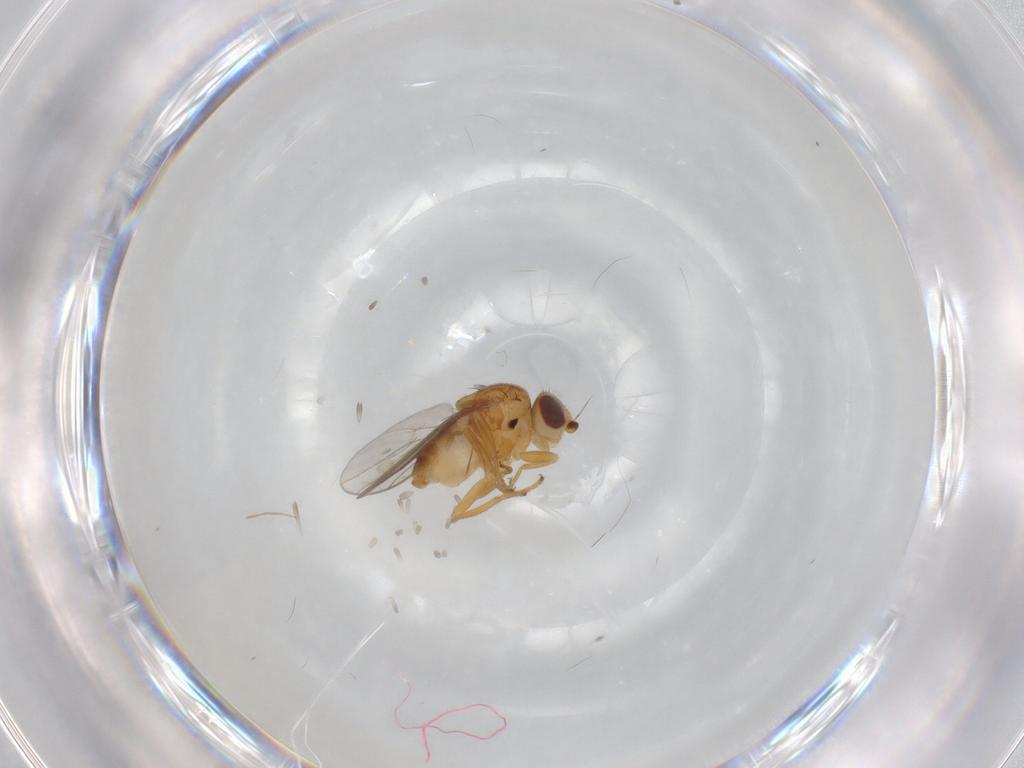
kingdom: Animalia
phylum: Arthropoda
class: Insecta
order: Diptera
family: Chloropidae
